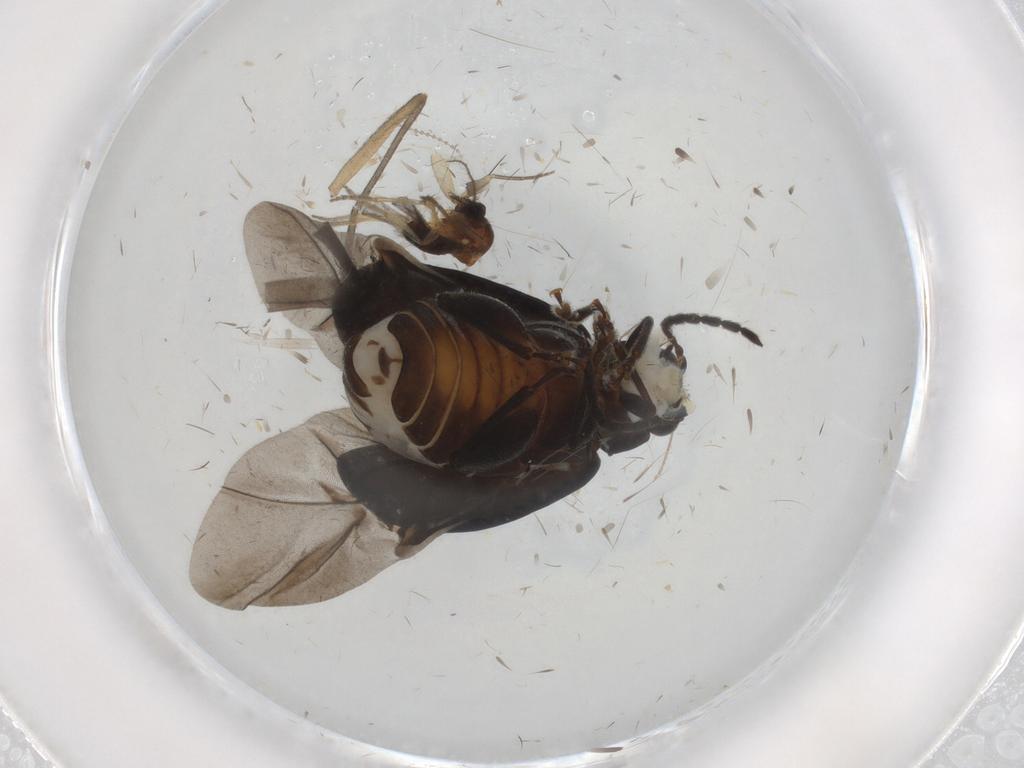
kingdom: Animalia
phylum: Arthropoda
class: Insecta
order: Coleoptera
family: Chrysomelidae
